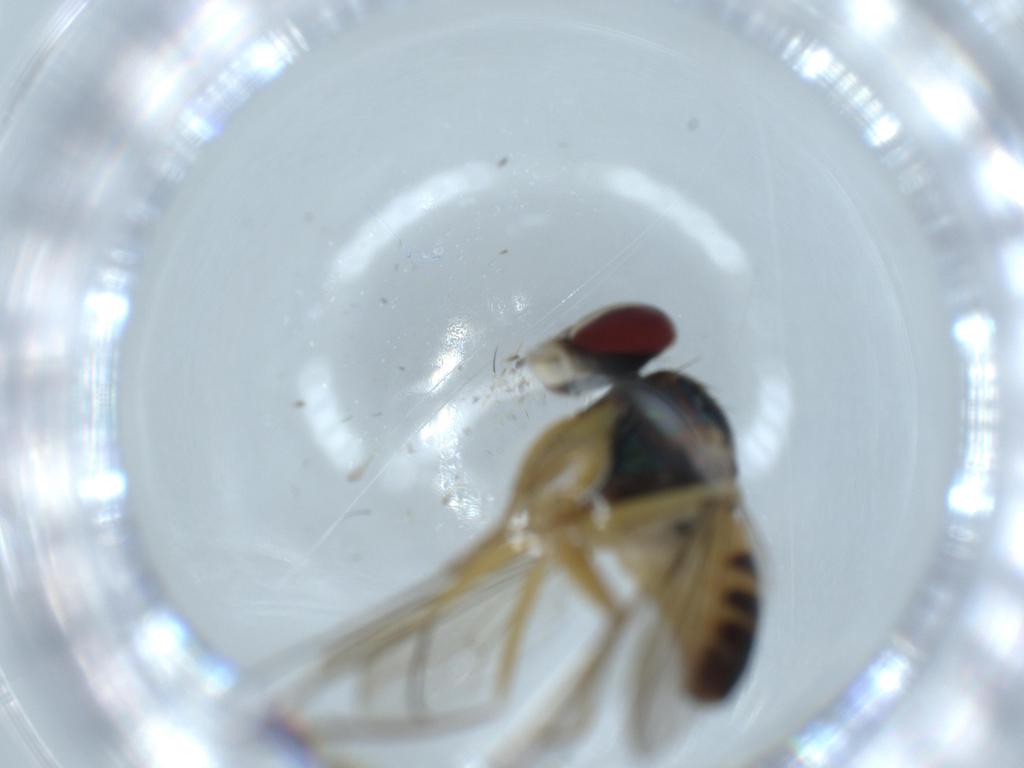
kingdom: Animalia
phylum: Arthropoda
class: Insecta
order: Diptera
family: Dolichopodidae
